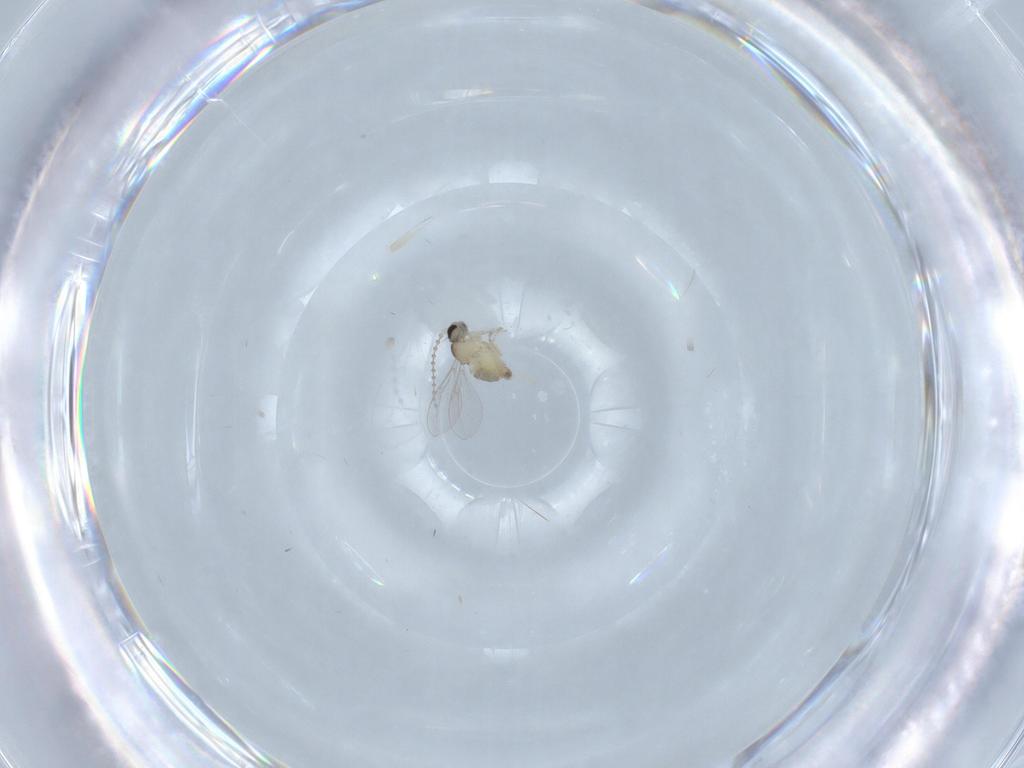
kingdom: Animalia
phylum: Arthropoda
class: Insecta
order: Diptera
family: Cecidomyiidae
